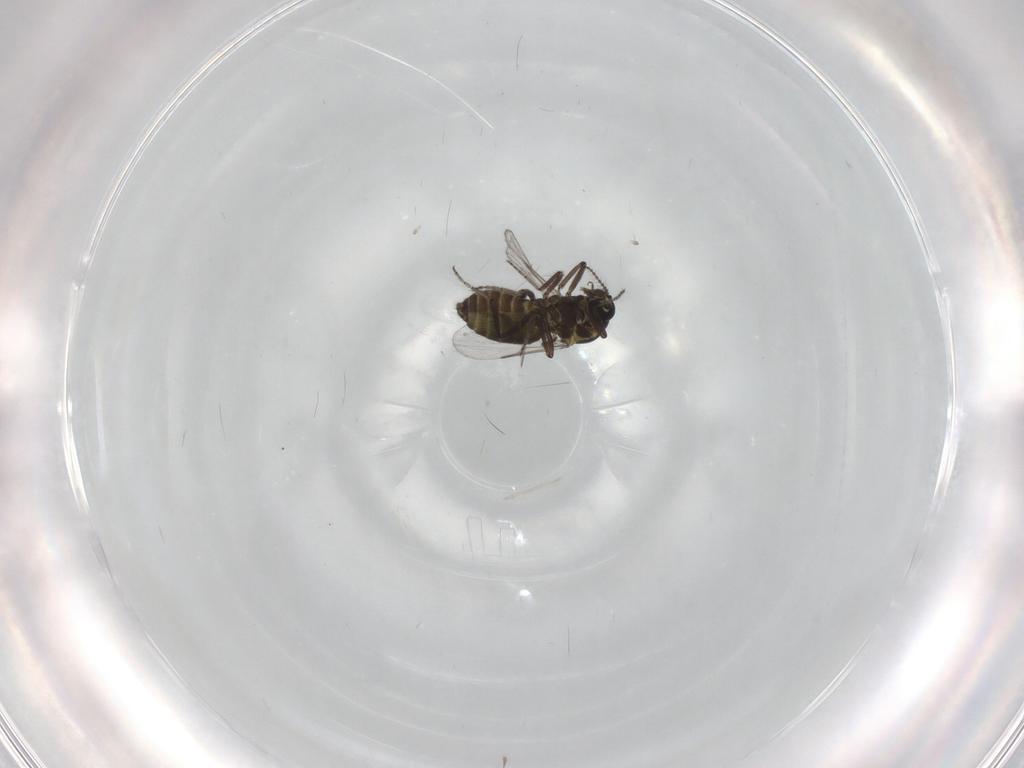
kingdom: Animalia
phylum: Arthropoda
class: Insecta
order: Diptera
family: Ceratopogonidae
